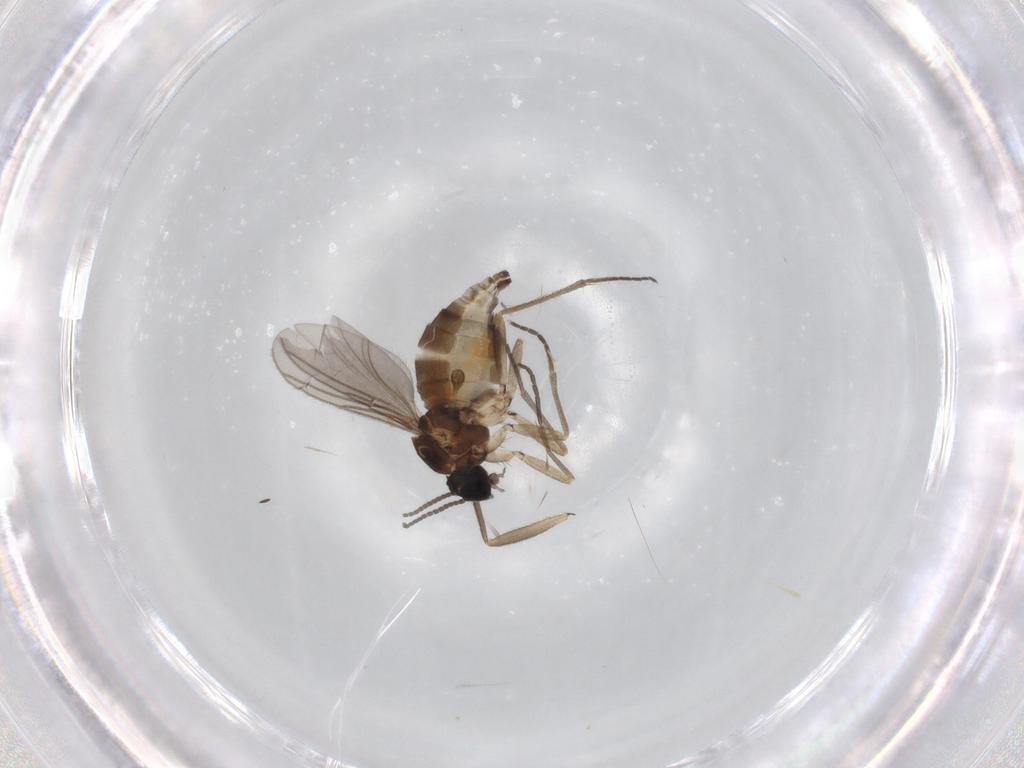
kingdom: Animalia
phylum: Arthropoda
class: Insecta
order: Diptera
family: Sciaridae
